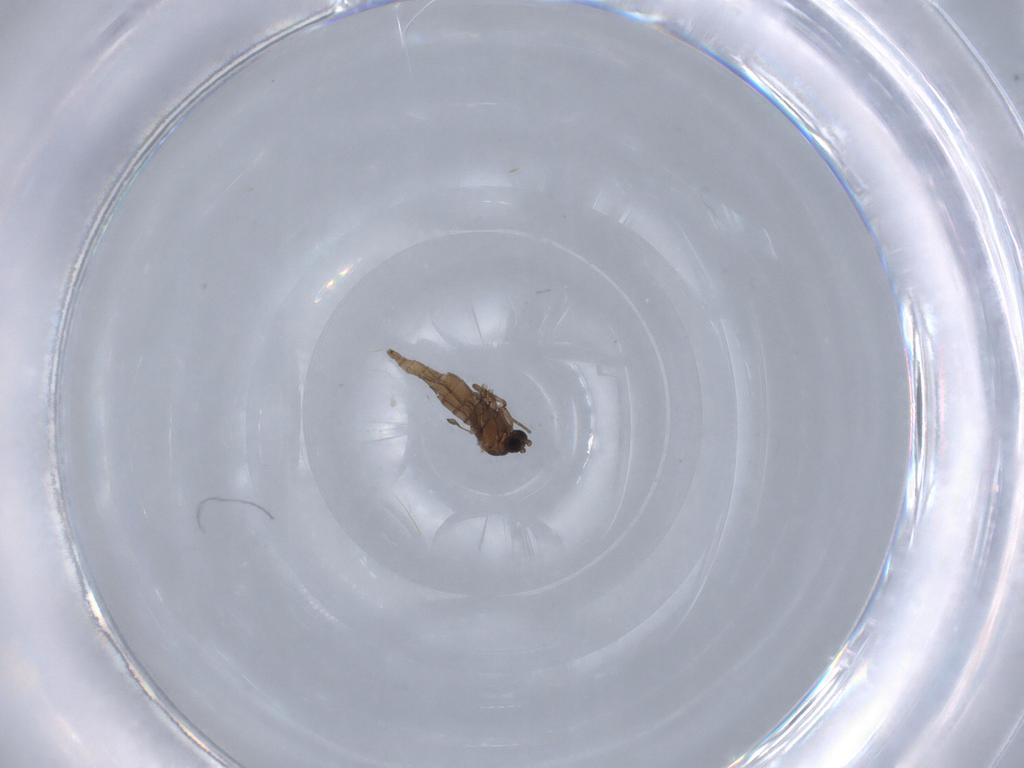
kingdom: Animalia
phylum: Arthropoda
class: Insecta
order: Diptera
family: Sciaridae
